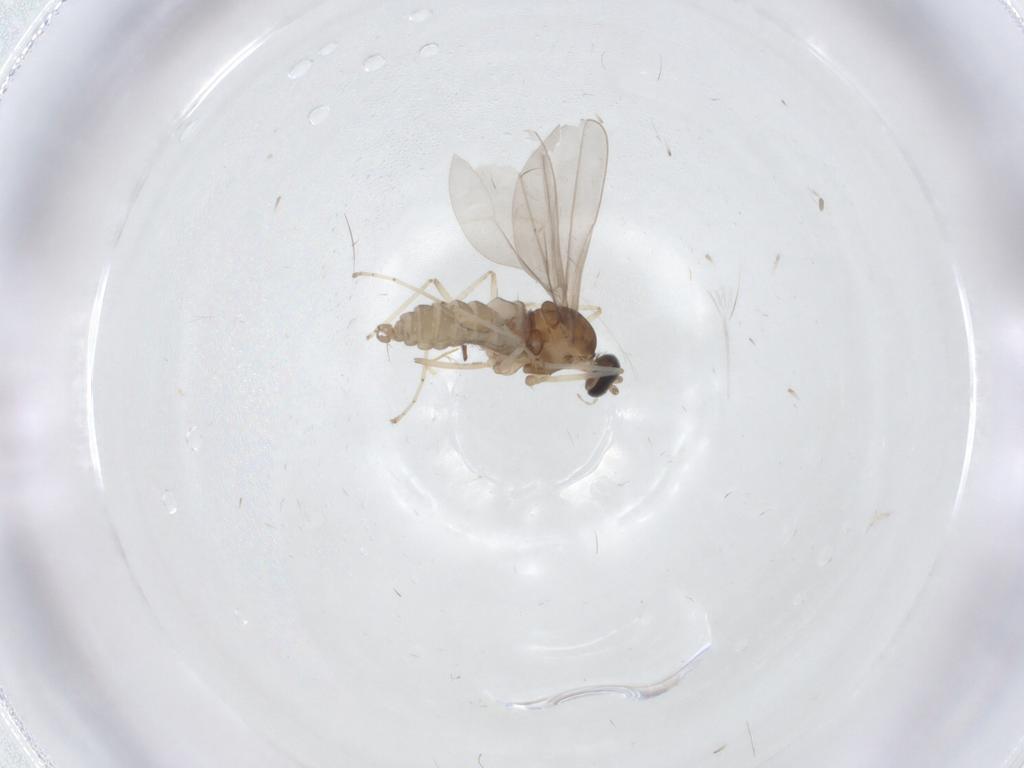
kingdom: Animalia
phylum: Arthropoda
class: Insecta
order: Diptera
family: Cecidomyiidae
